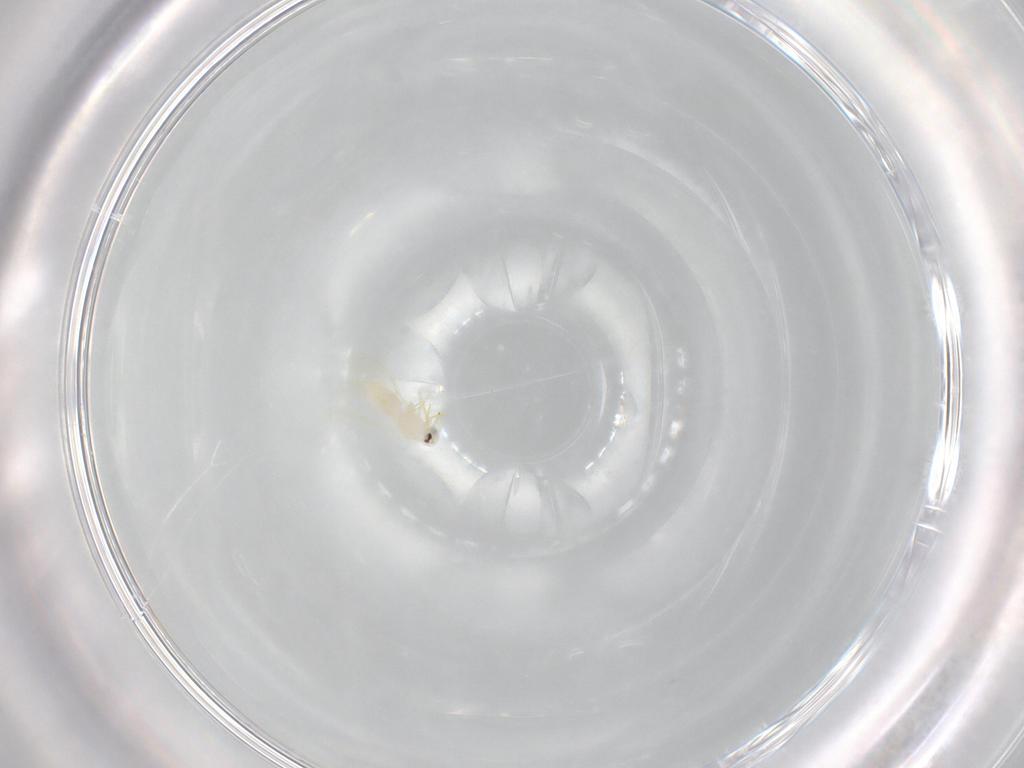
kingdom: Animalia
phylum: Arthropoda
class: Insecta
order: Hemiptera
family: Aleyrodidae
